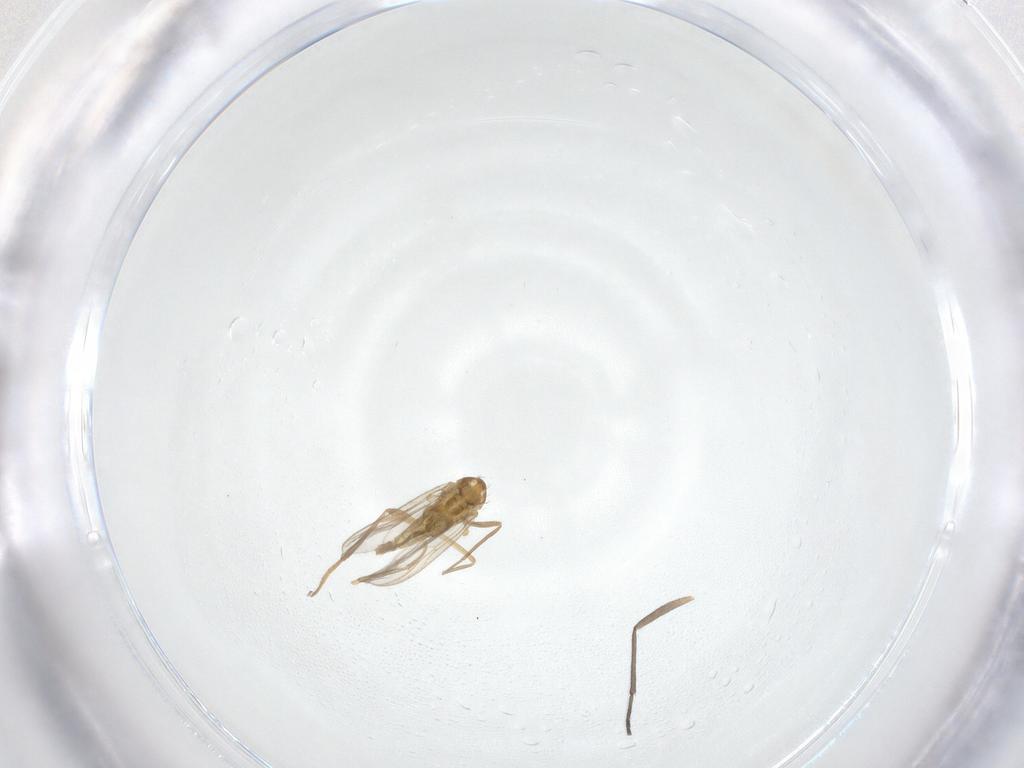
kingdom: Animalia
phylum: Arthropoda
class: Insecta
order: Diptera
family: Chironomidae
